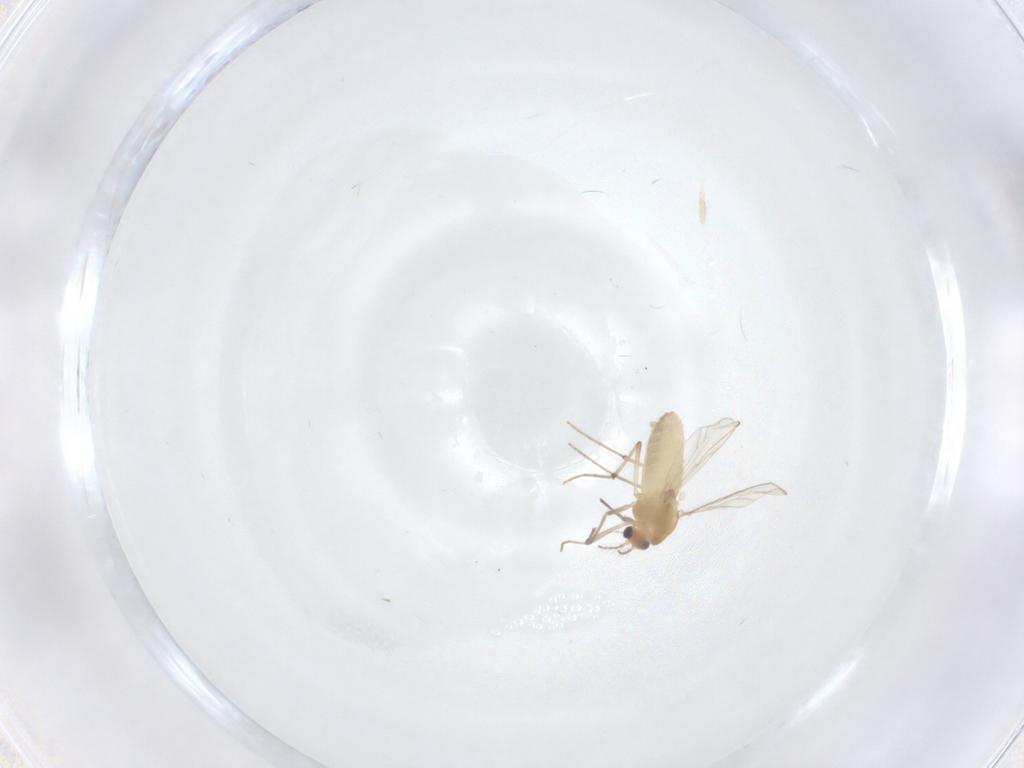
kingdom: Animalia
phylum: Arthropoda
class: Insecta
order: Diptera
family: Chironomidae
